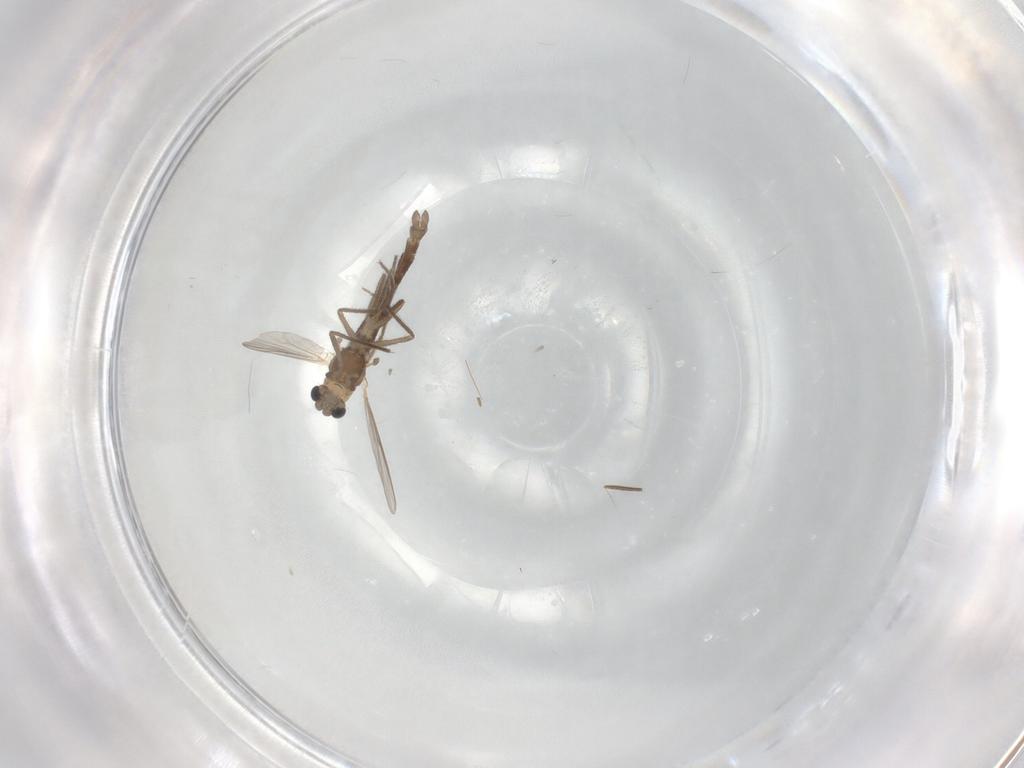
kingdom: Animalia
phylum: Arthropoda
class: Insecta
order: Diptera
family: Chironomidae
